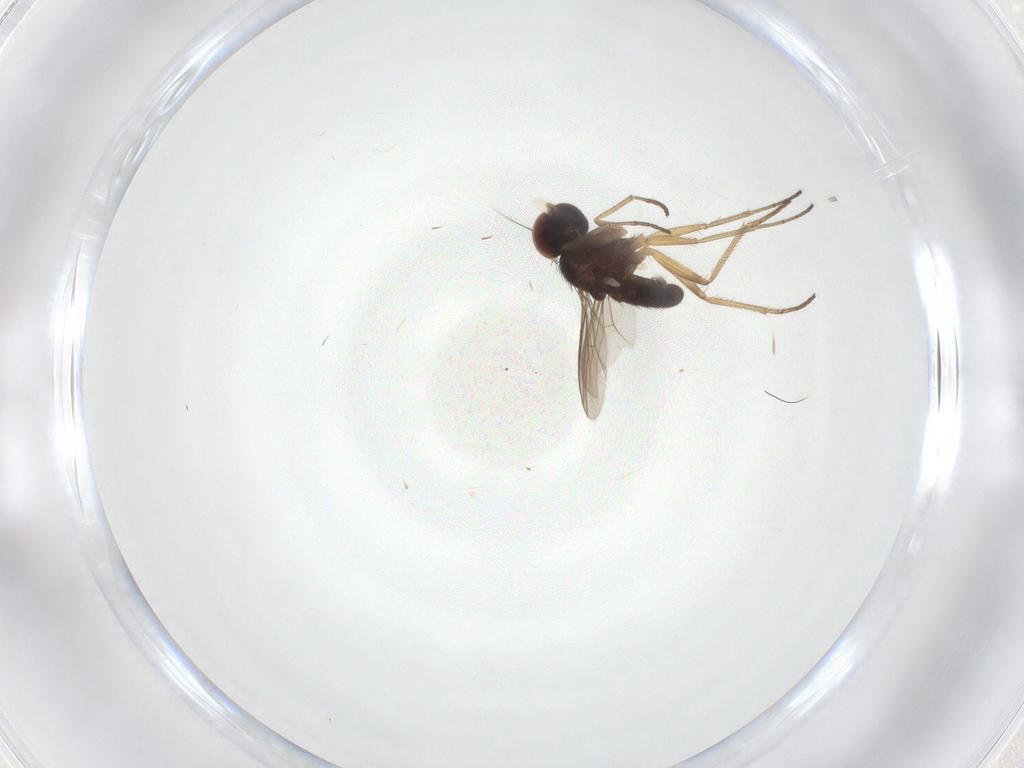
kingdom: Animalia
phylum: Arthropoda
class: Insecta
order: Diptera
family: Dolichopodidae
